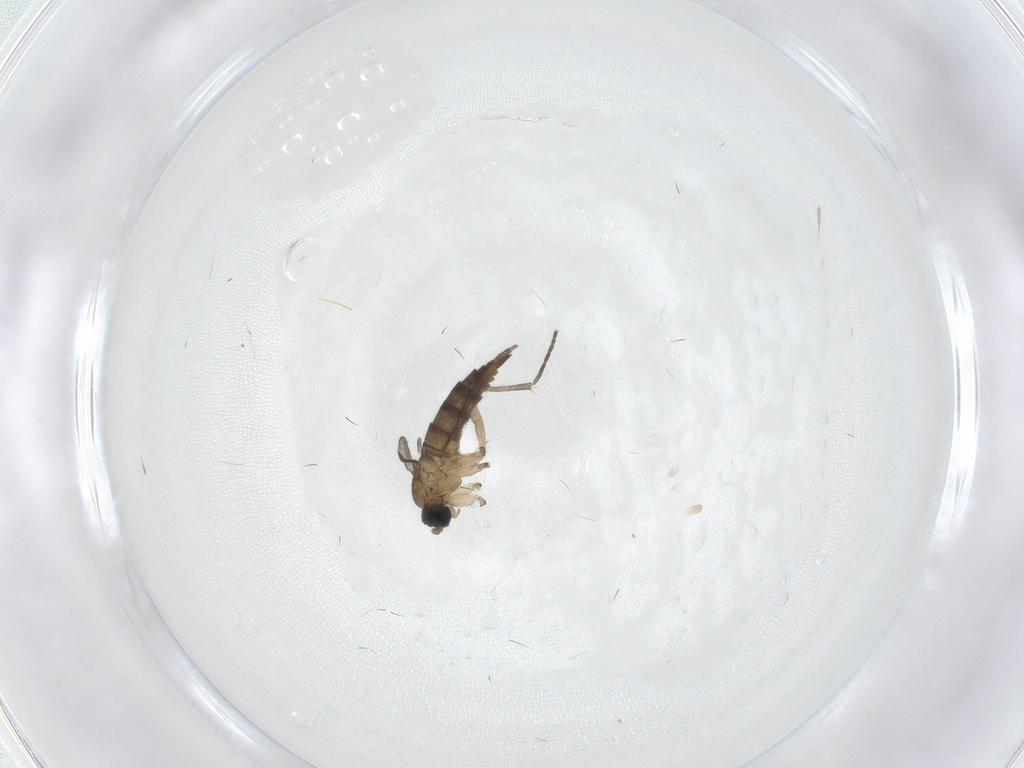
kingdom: Animalia
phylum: Arthropoda
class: Insecta
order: Diptera
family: Sciaridae
